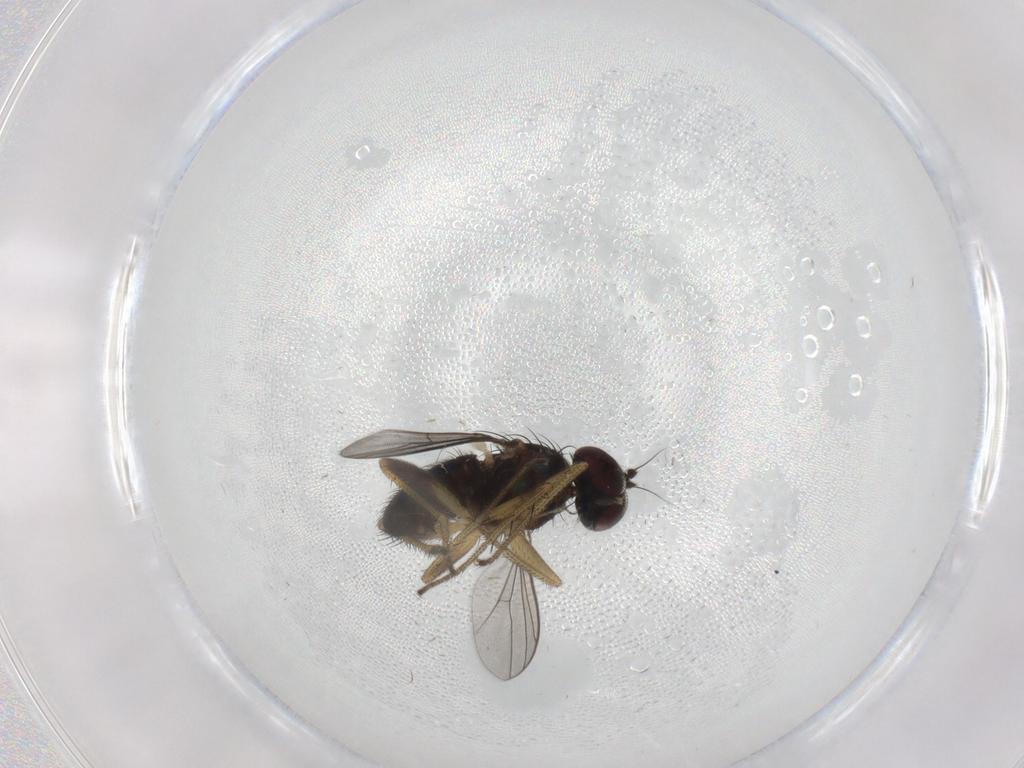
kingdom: Animalia
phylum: Arthropoda
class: Insecta
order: Diptera
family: Dolichopodidae
